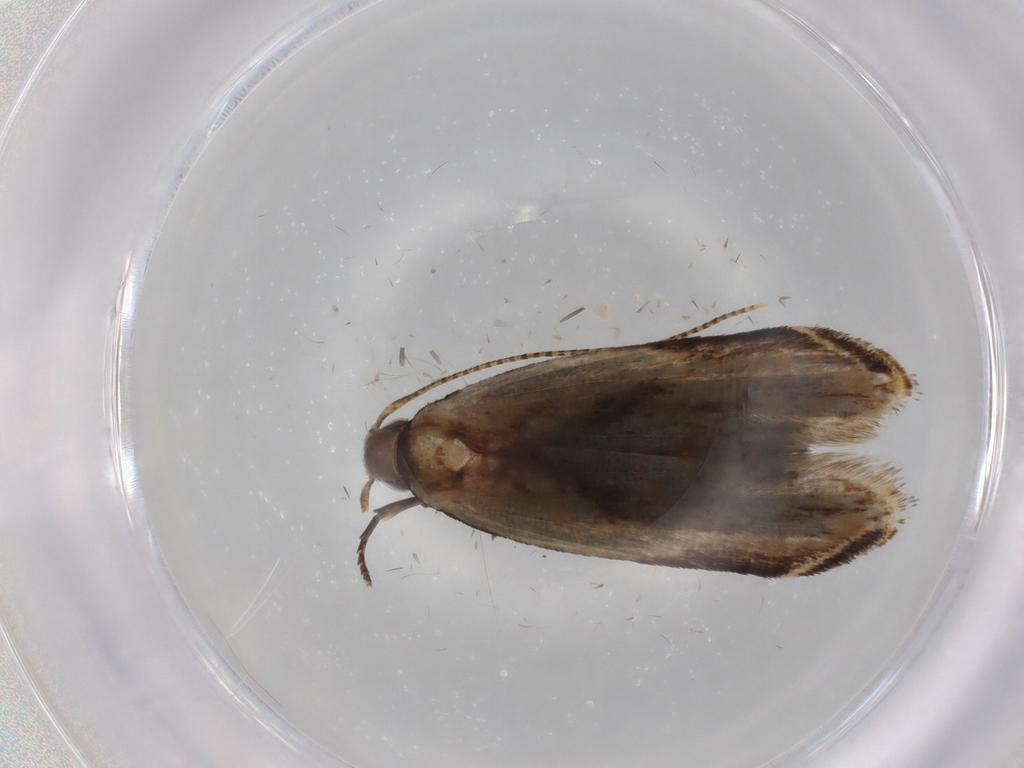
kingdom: Animalia
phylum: Arthropoda
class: Insecta
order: Lepidoptera
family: Gelechiidae
